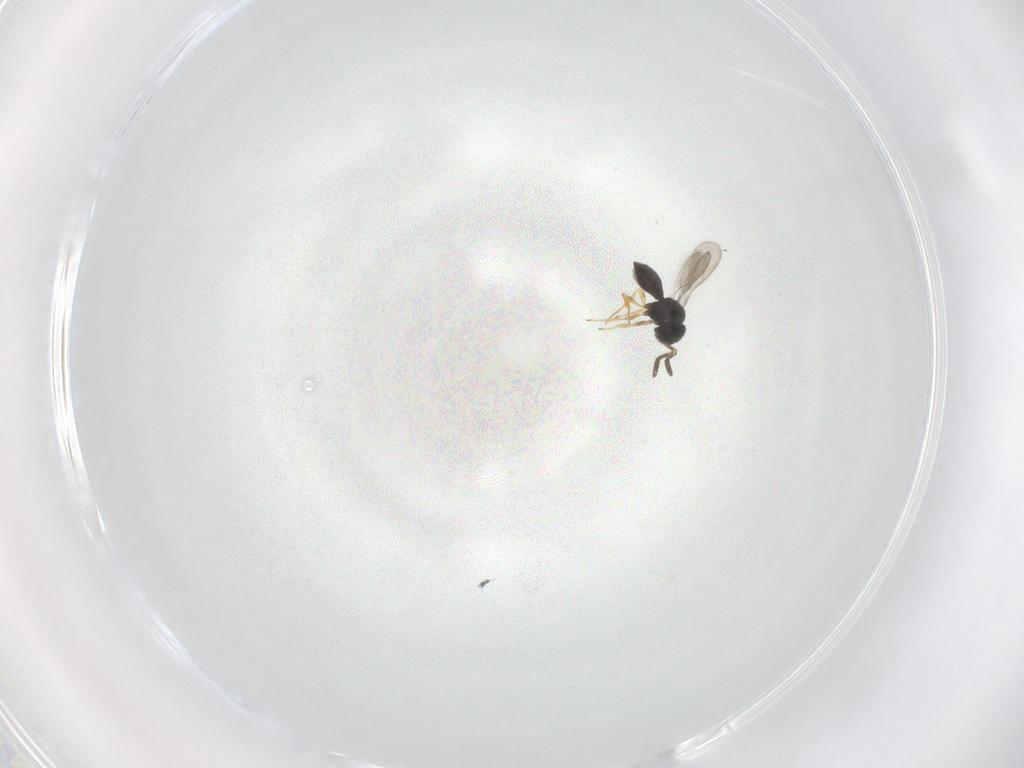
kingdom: Animalia
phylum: Arthropoda
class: Insecta
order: Hymenoptera
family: Scelionidae
